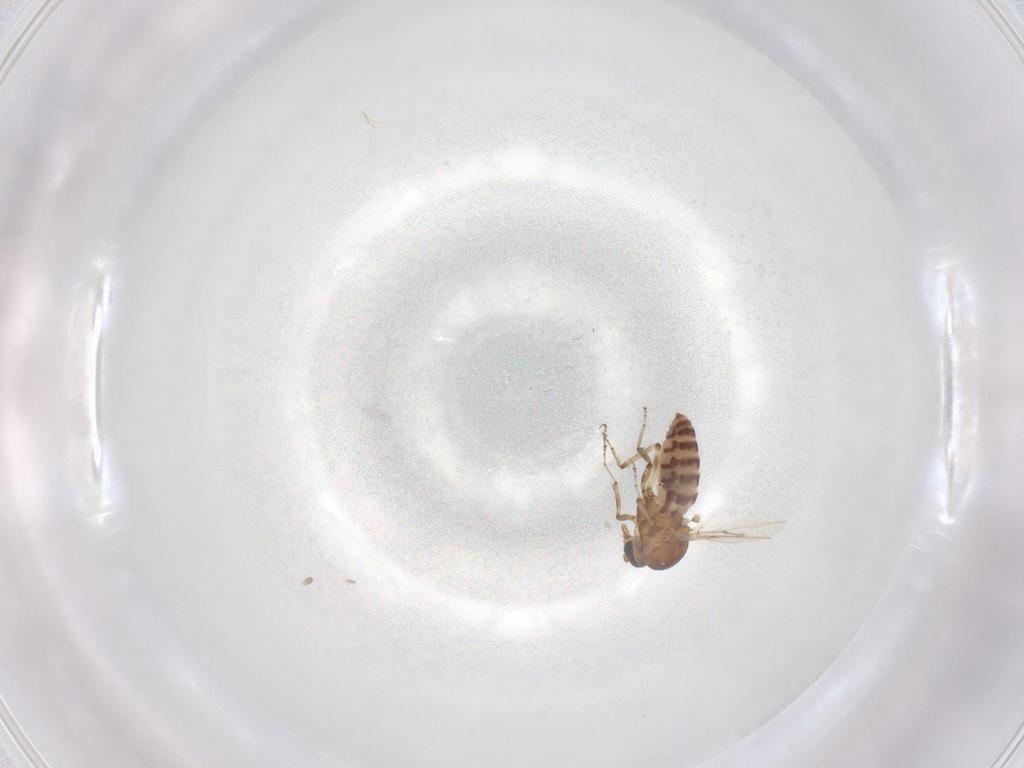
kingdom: Animalia
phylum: Arthropoda
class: Insecta
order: Diptera
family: Ceratopogonidae
